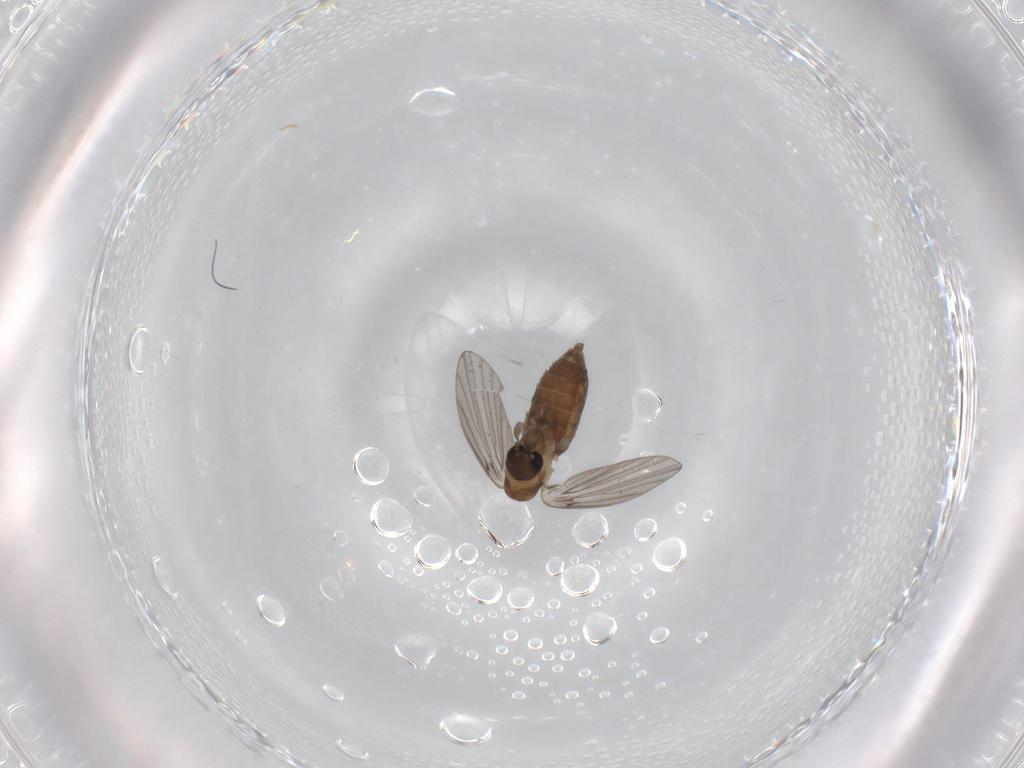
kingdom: Animalia
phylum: Arthropoda
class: Insecta
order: Diptera
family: Psychodidae
